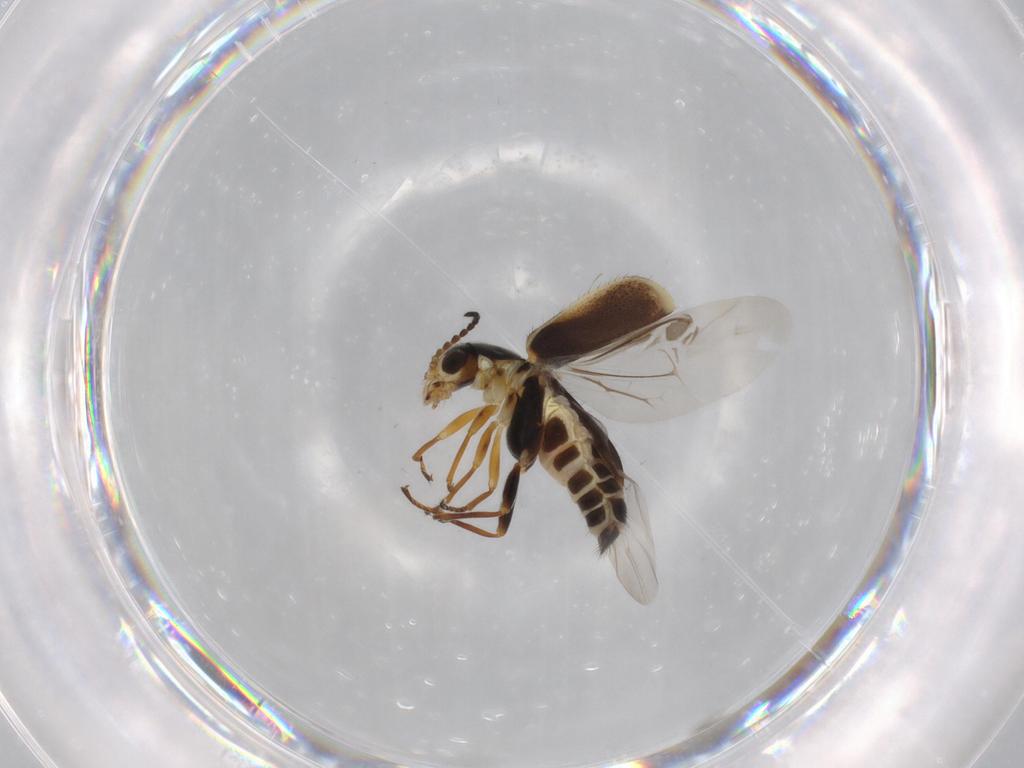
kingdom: Animalia
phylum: Arthropoda
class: Insecta
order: Coleoptera
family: Melyridae
